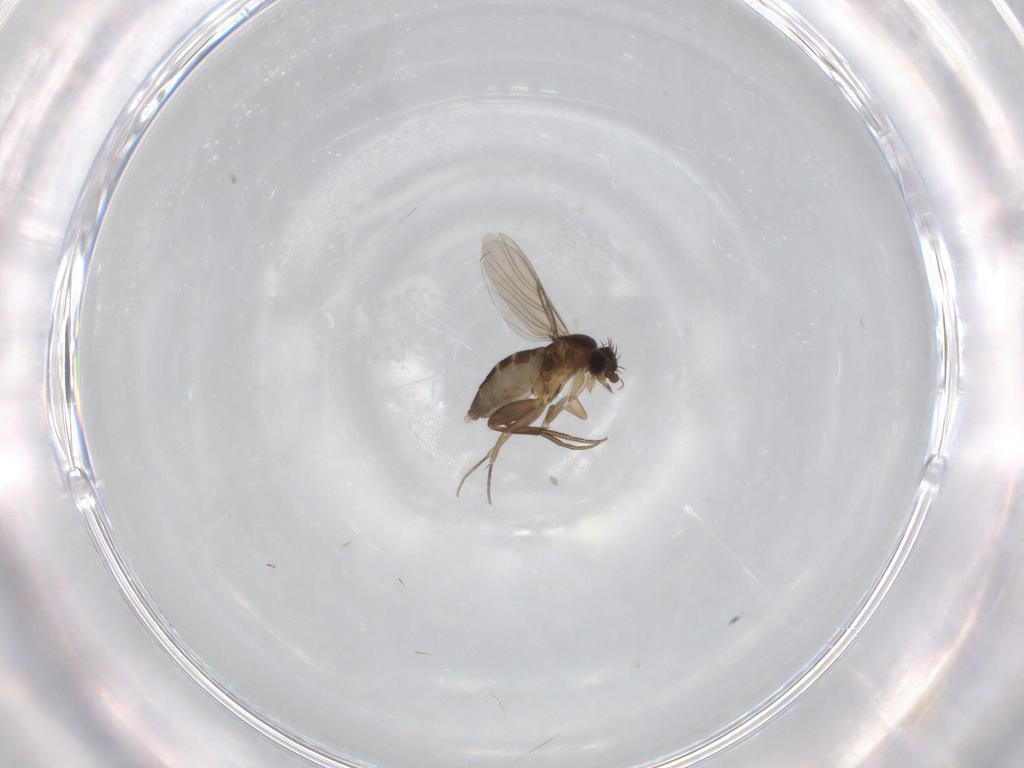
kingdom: Animalia
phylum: Arthropoda
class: Insecta
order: Diptera
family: Phoridae
